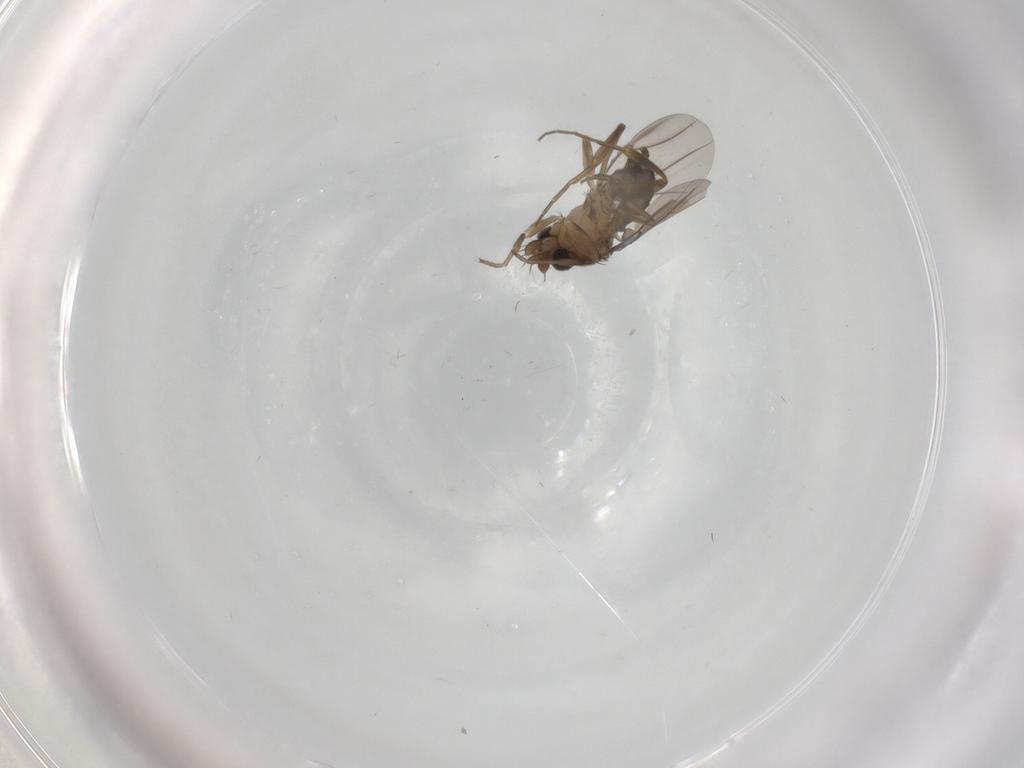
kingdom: Animalia
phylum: Arthropoda
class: Insecta
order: Diptera
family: Phoridae
